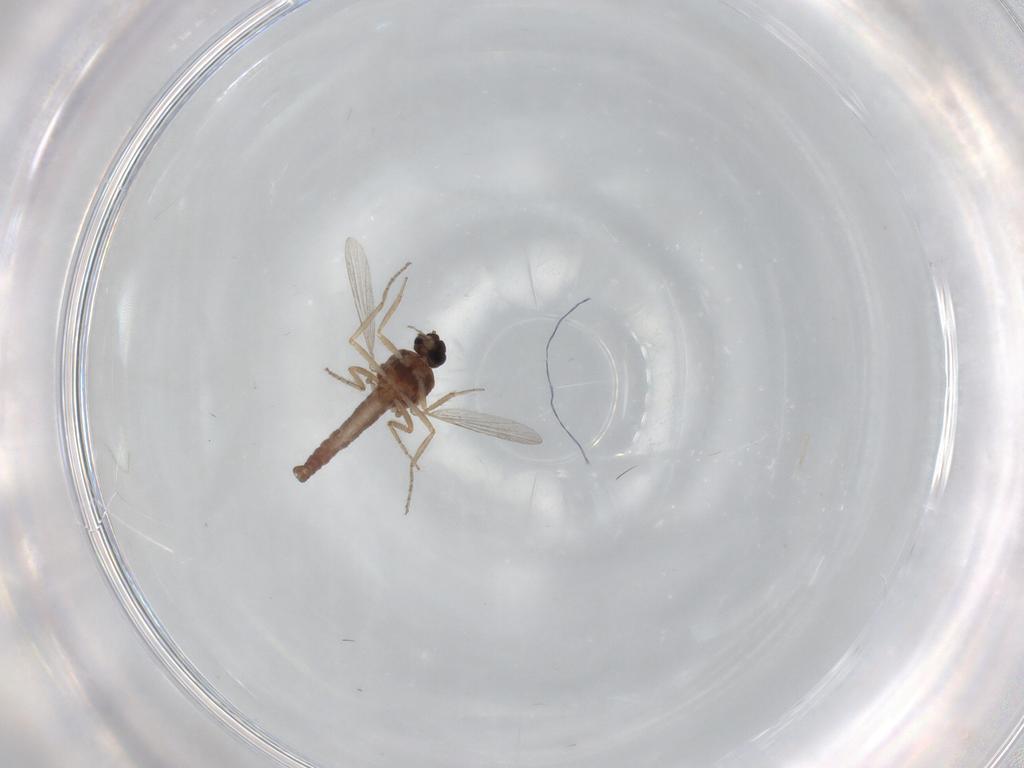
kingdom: Animalia
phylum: Arthropoda
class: Insecta
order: Diptera
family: Ceratopogonidae
